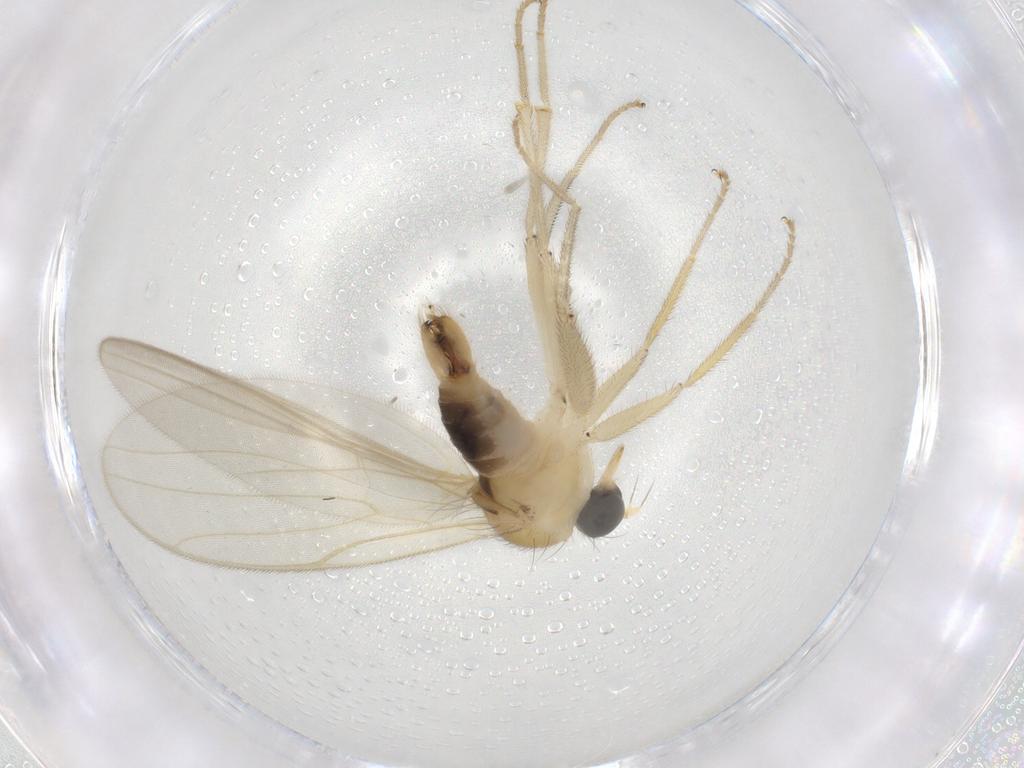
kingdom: Animalia
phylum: Arthropoda
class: Insecta
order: Diptera
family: Hybotidae
